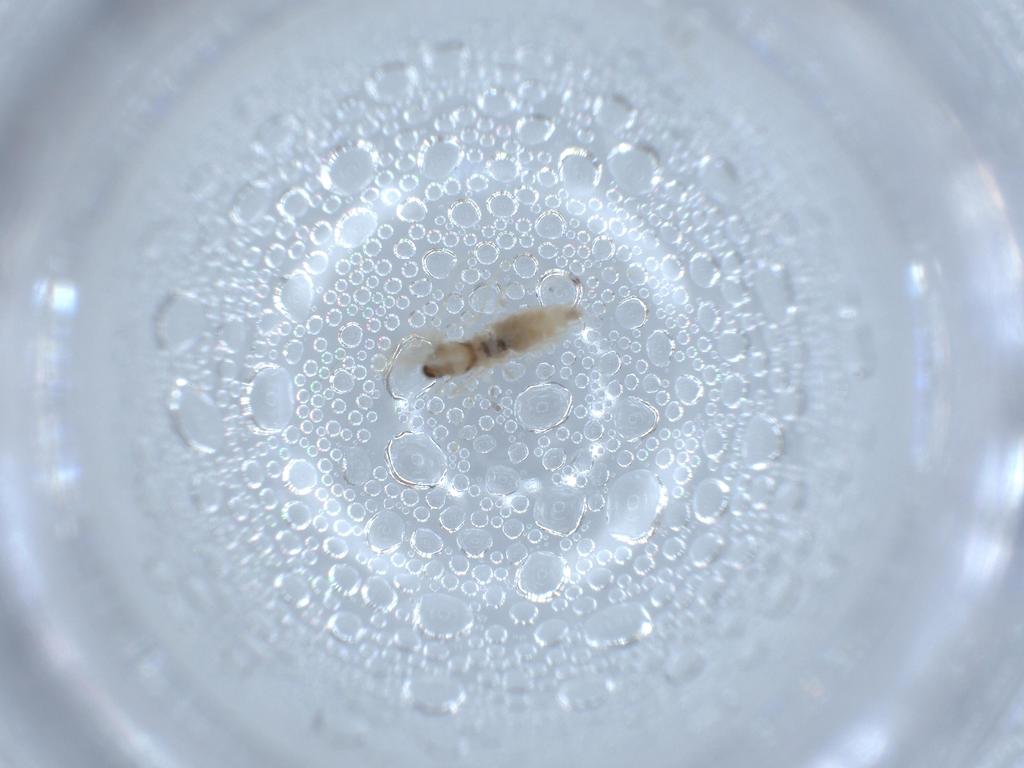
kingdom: Animalia
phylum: Arthropoda
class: Insecta
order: Diptera
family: Cecidomyiidae
